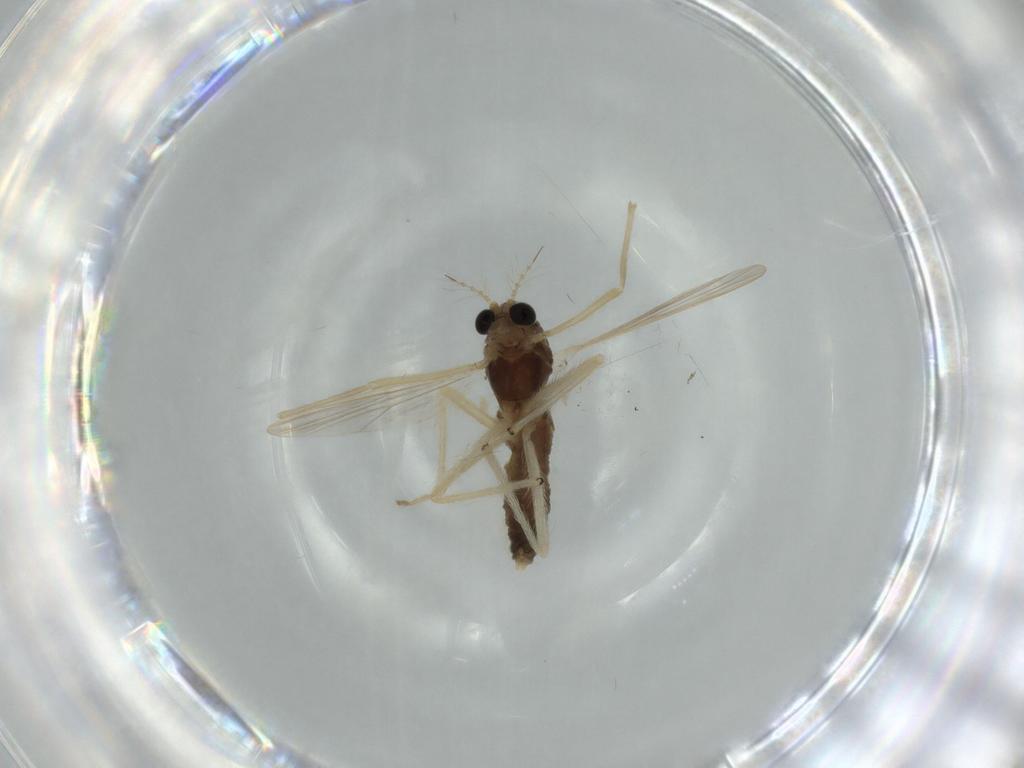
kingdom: Animalia
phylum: Arthropoda
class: Insecta
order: Diptera
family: Chironomidae
